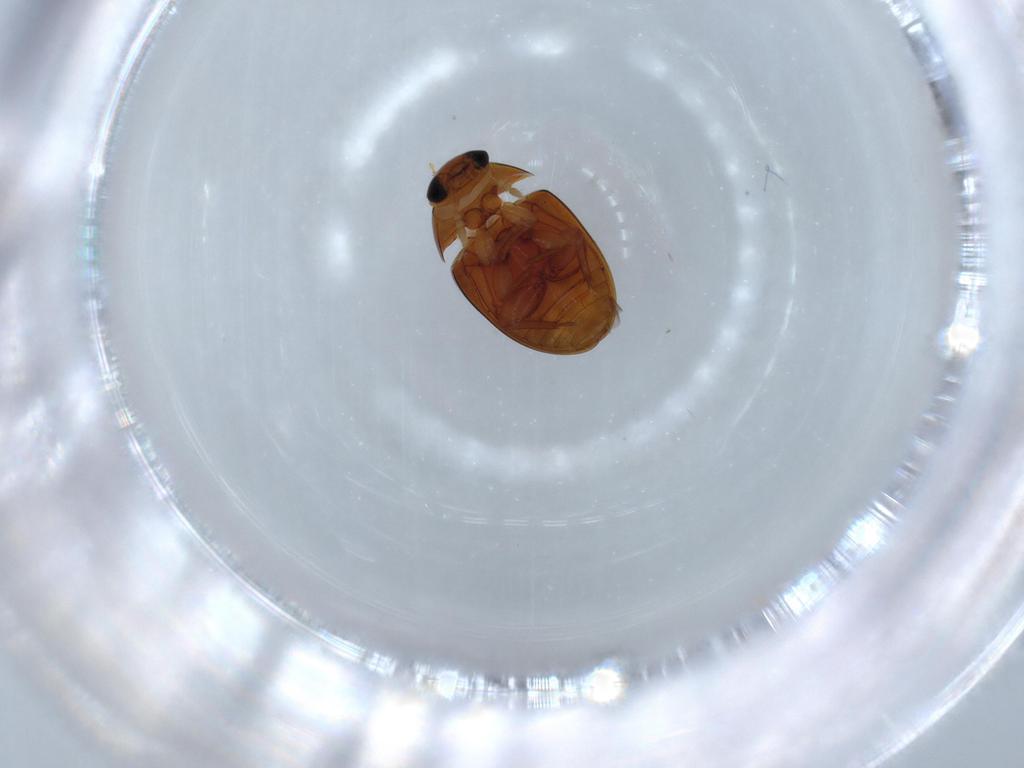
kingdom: Animalia
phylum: Arthropoda
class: Insecta
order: Coleoptera
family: Phalacridae
